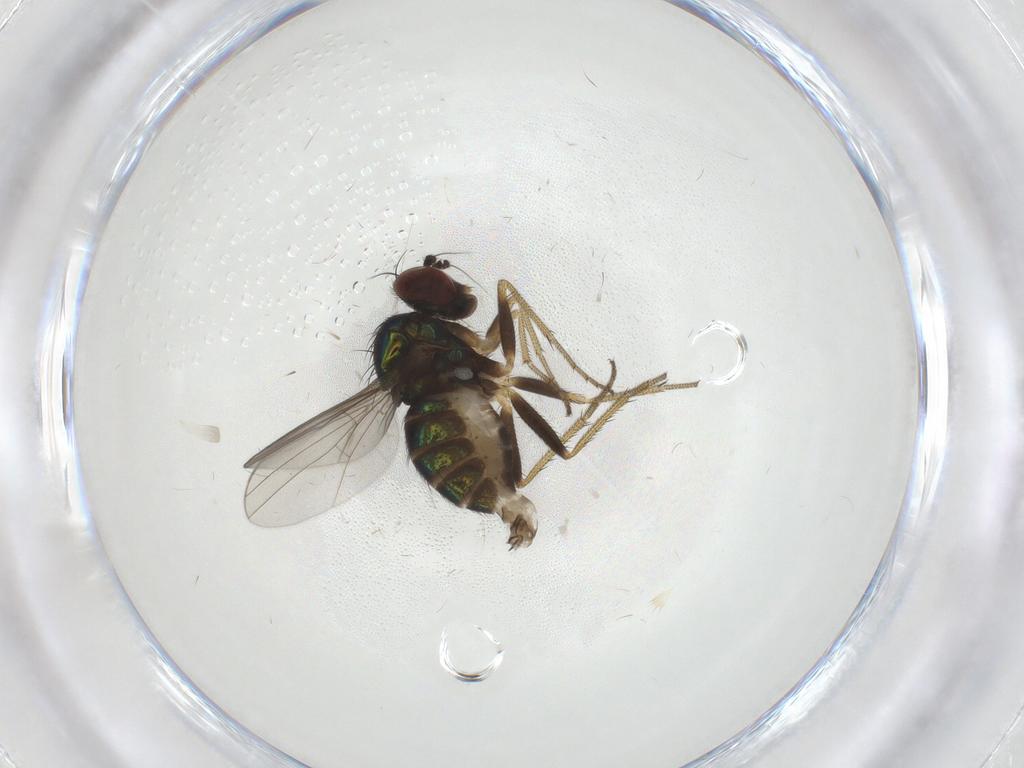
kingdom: Animalia
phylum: Arthropoda
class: Insecta
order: Diptera
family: Dolichopodidae
